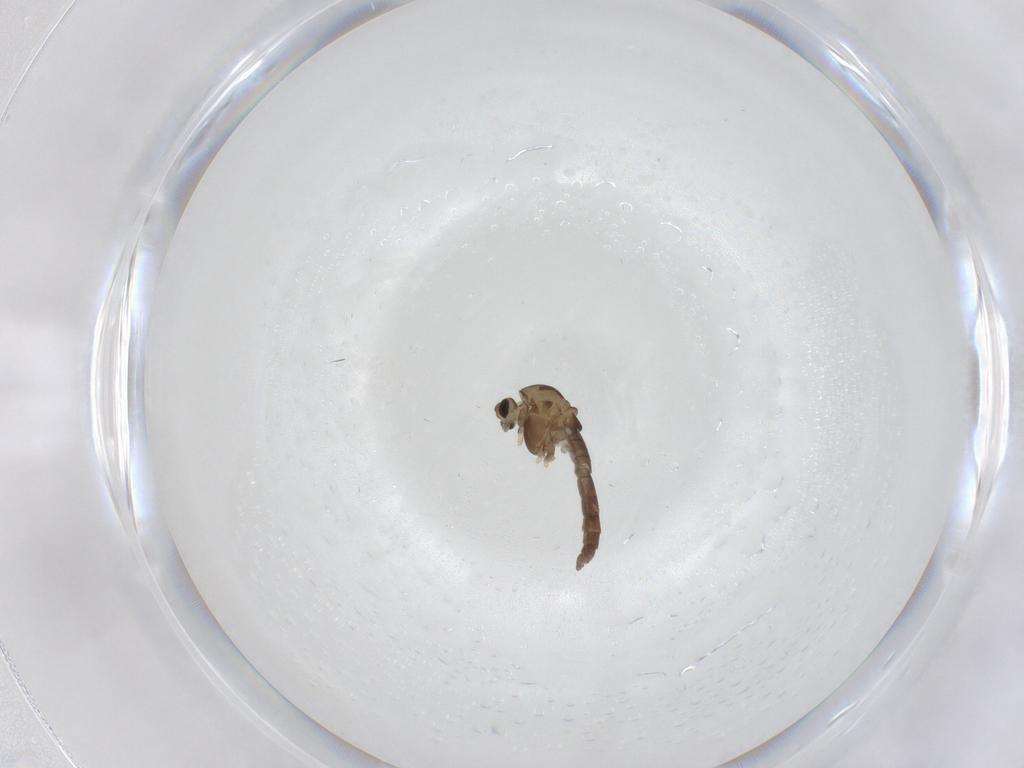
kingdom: Animalia
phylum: Arthropoda
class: Insecta
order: Diptera
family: Chironomidae
